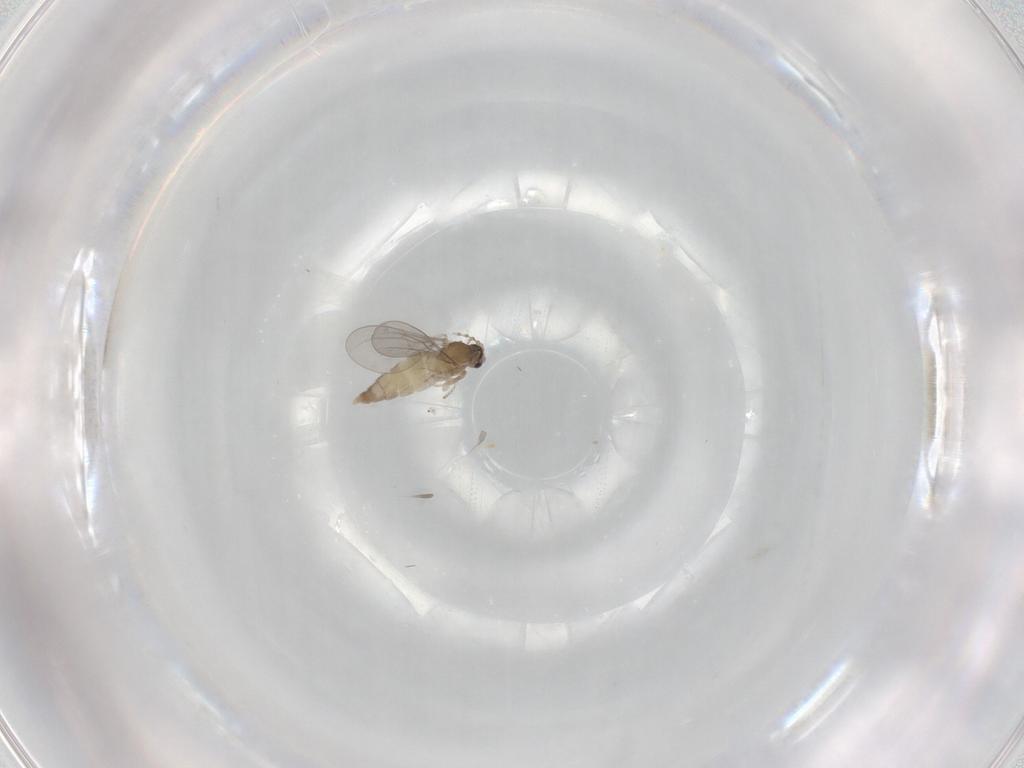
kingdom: Animalia
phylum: Arthropoda
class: Insecta
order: Diptera
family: Cecidomyiidae
